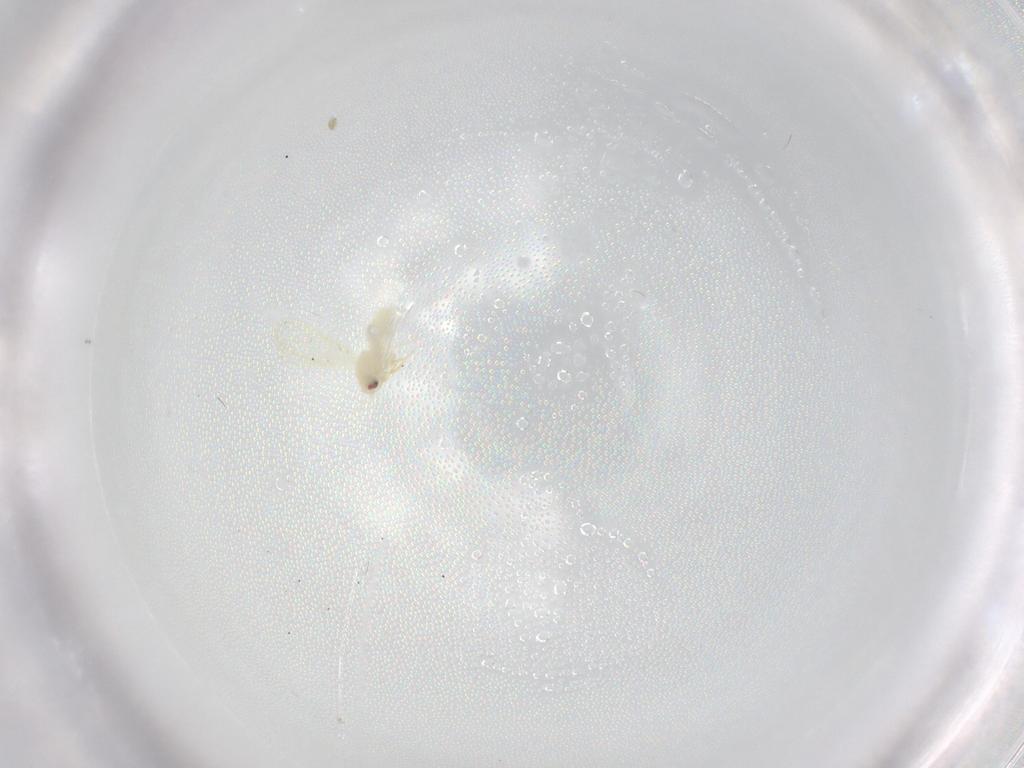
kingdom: Animalia
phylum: Arthropoda
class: Insecta
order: Hemiptera
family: Aleyrodidae
